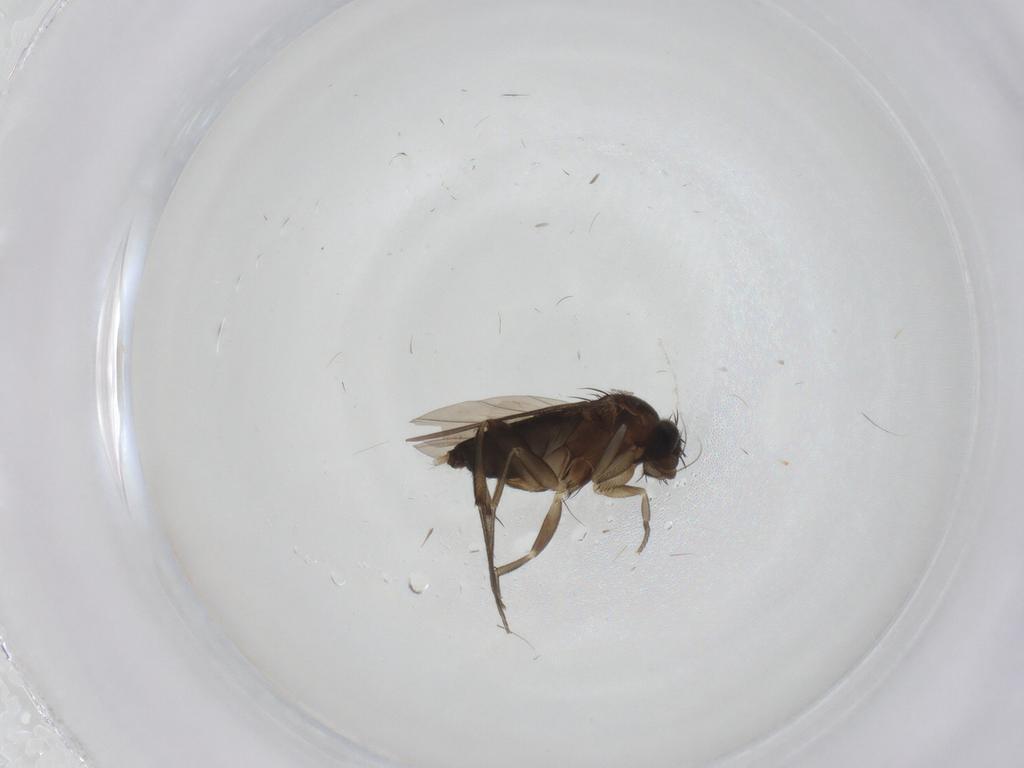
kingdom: Animalia
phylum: Arthropoda
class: Insecta
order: Diptera
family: Phoridae
